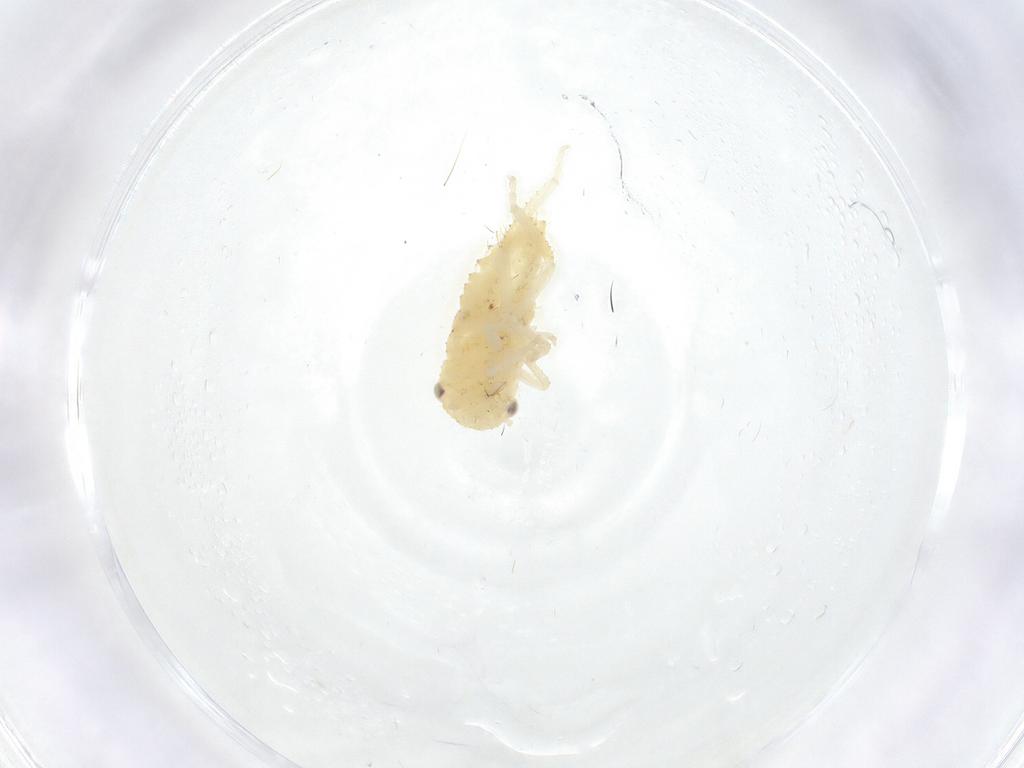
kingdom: Animalia
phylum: Arthropoda
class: Insecta
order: Hemiptera
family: Cicadellidae
